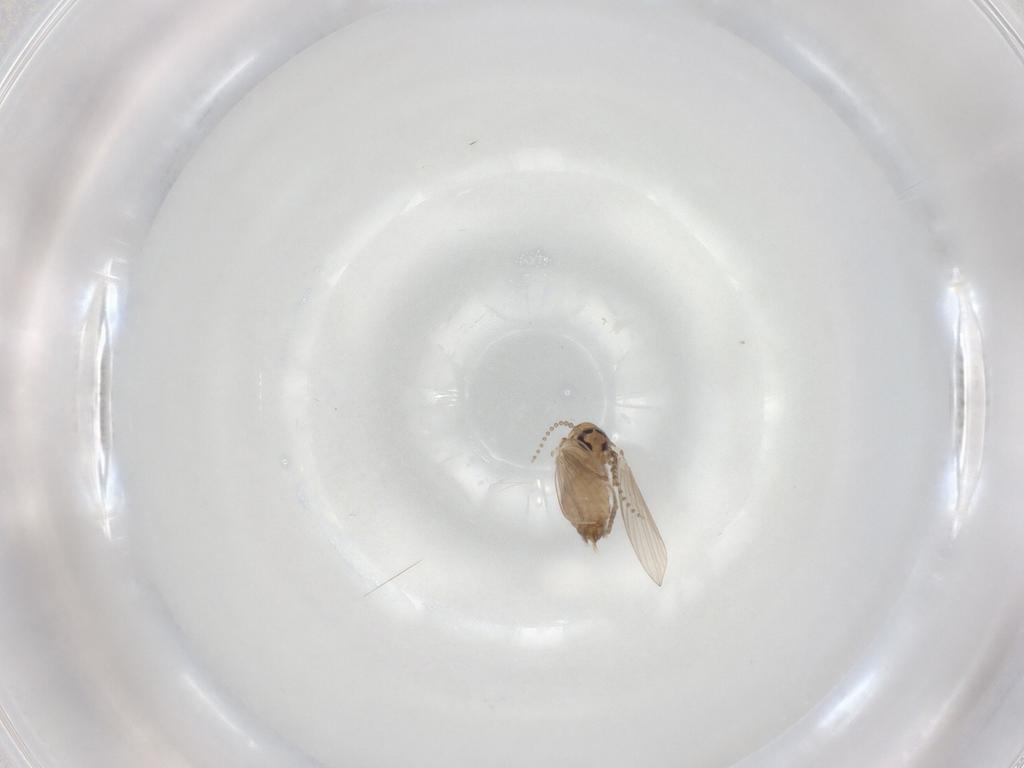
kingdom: Animalia
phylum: Arthropoda
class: Insecta
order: Diptera
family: Psychodidae
